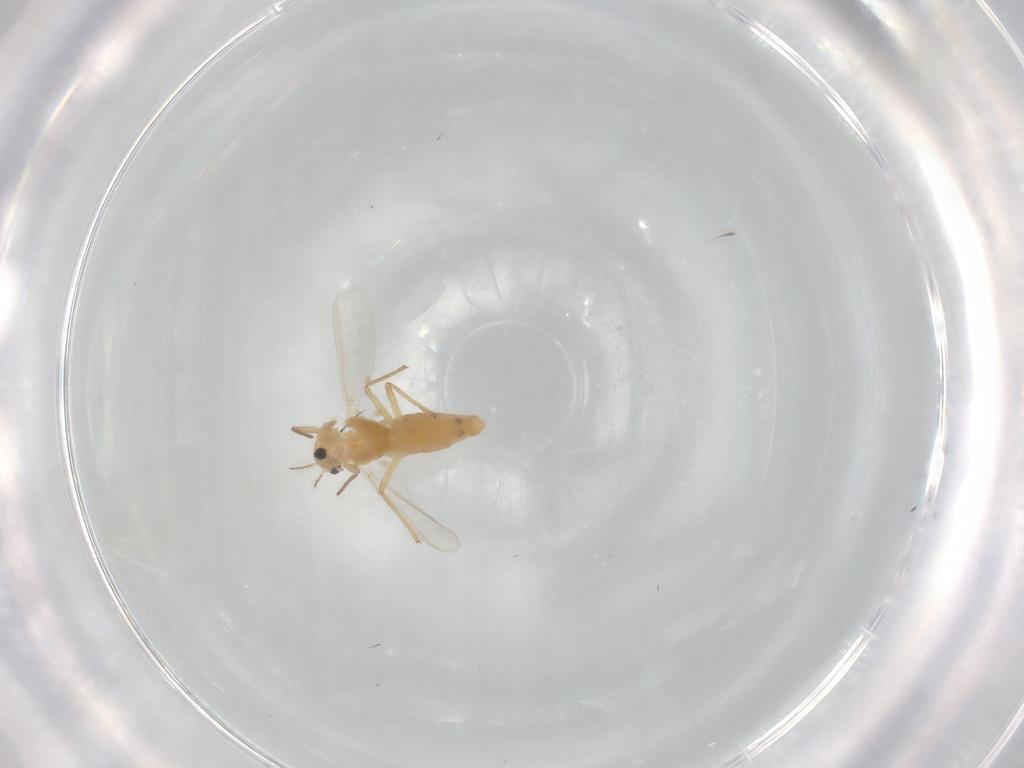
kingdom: Animalia
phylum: Arthropoda
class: Insecta
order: Diptera
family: Chironomidae
